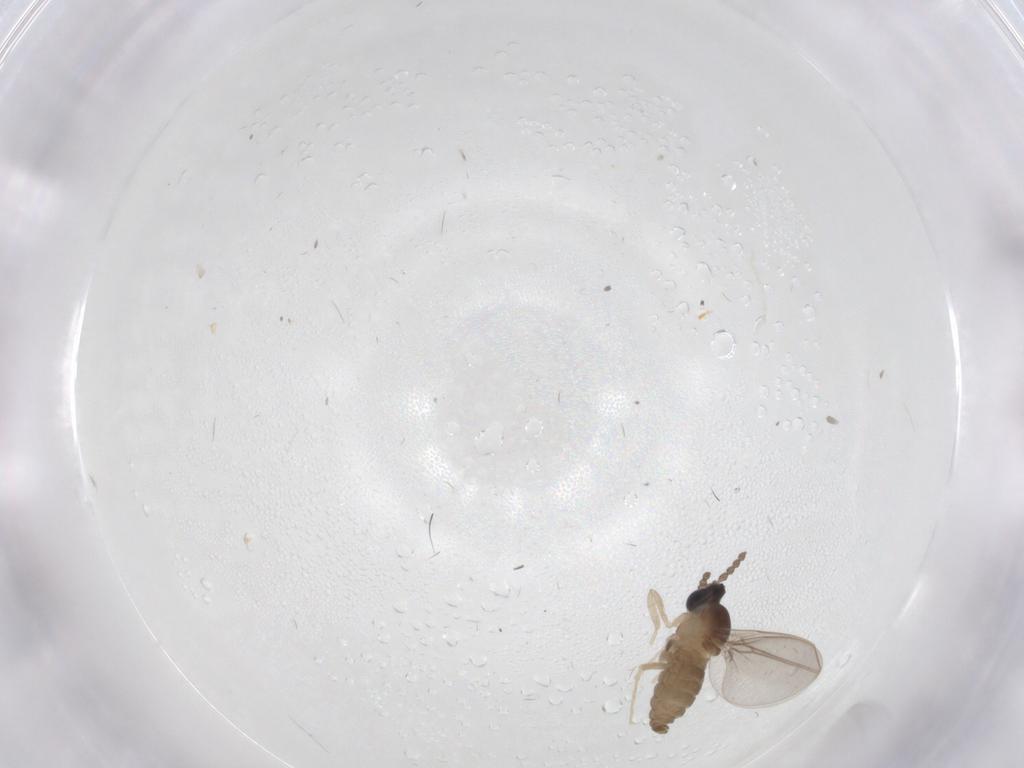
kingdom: Animalia
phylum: Arthropoda
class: Insecta
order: Diptera
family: Cecidomyiidae
